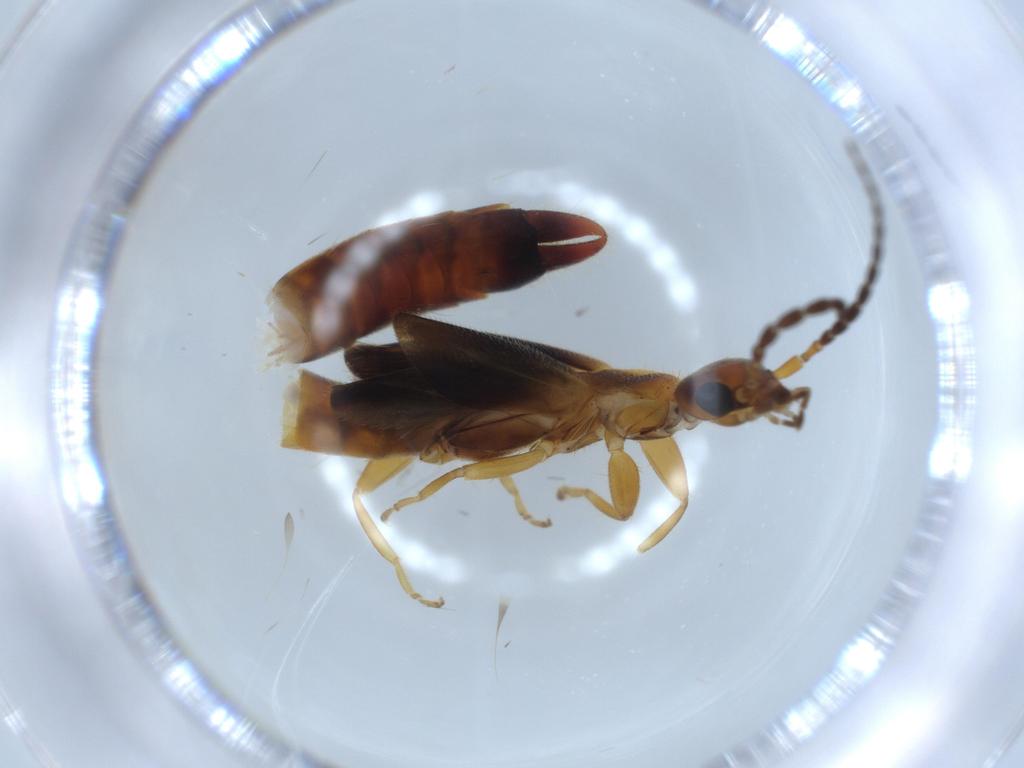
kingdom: Animalia
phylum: Arthropoda
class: Insecta
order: Dermaptera
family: Forficulidae
